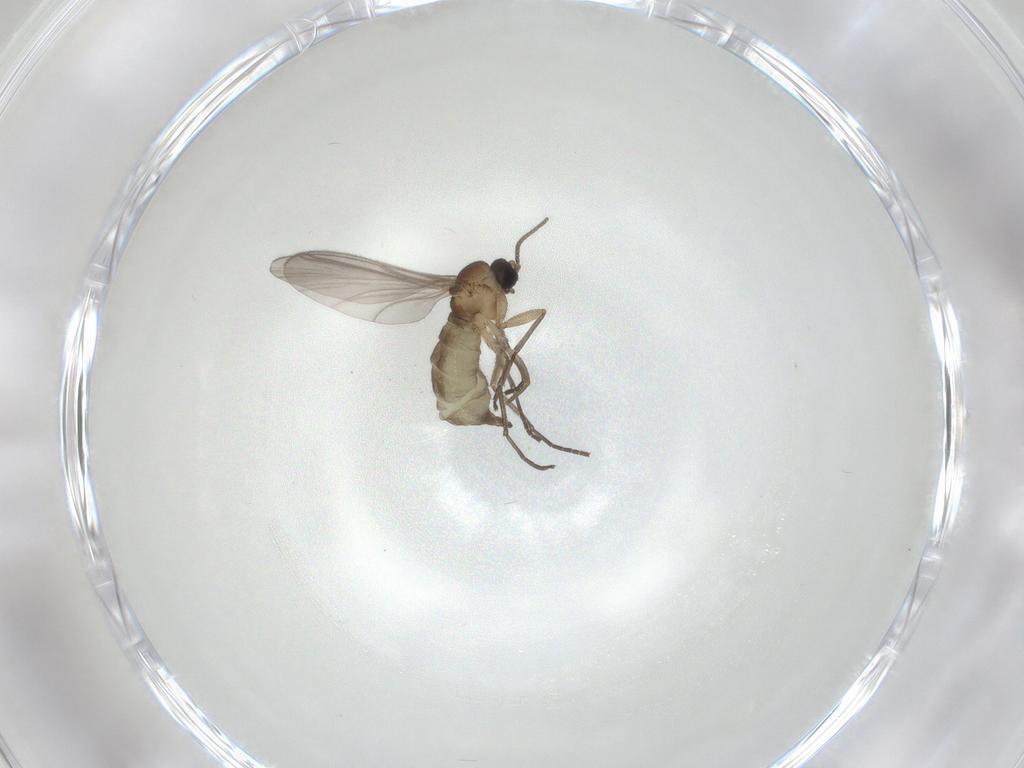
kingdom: Animalia
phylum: Arthropoda
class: Insecta
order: Diptera
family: Sciaridae
